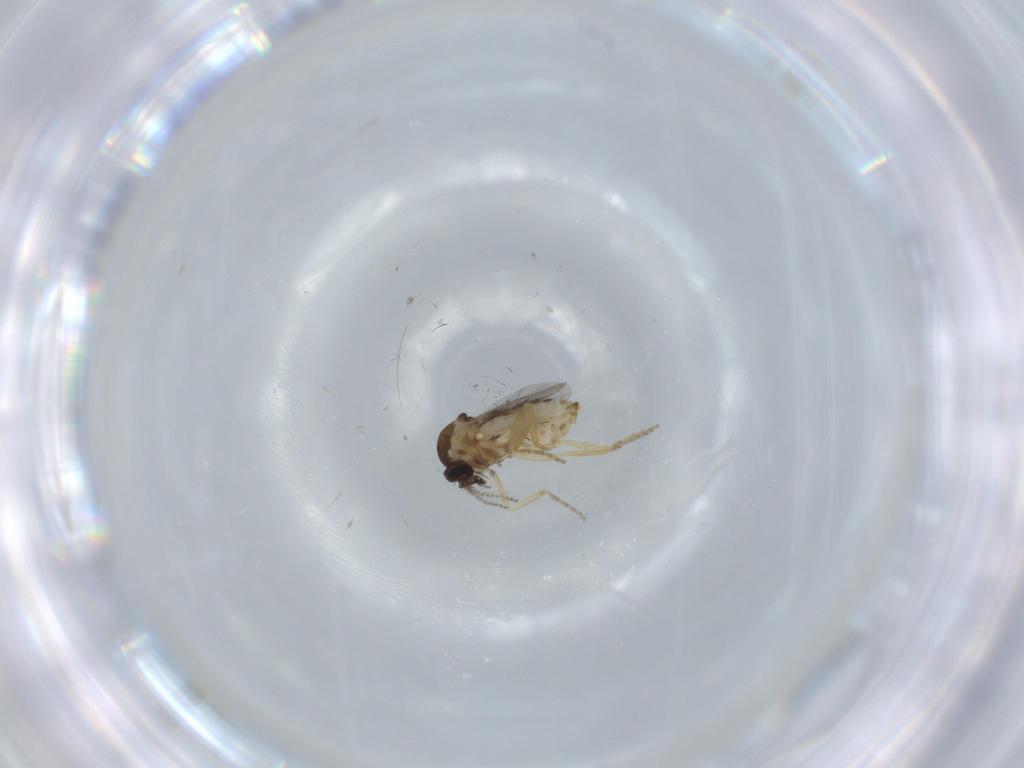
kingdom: Animalia
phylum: Arthropoda
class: Insecta
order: Diptera
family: Ceratopogonidae
